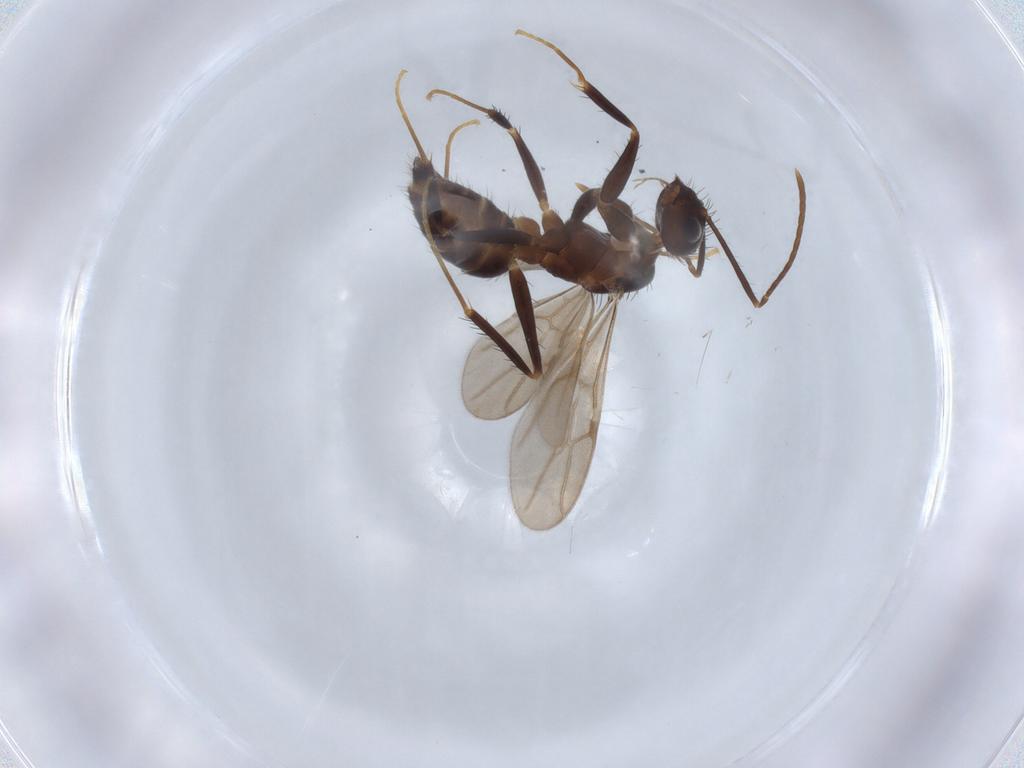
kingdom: Animalia
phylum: Arthropoda
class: Insecta
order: Hymenoptera
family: Formicidae
